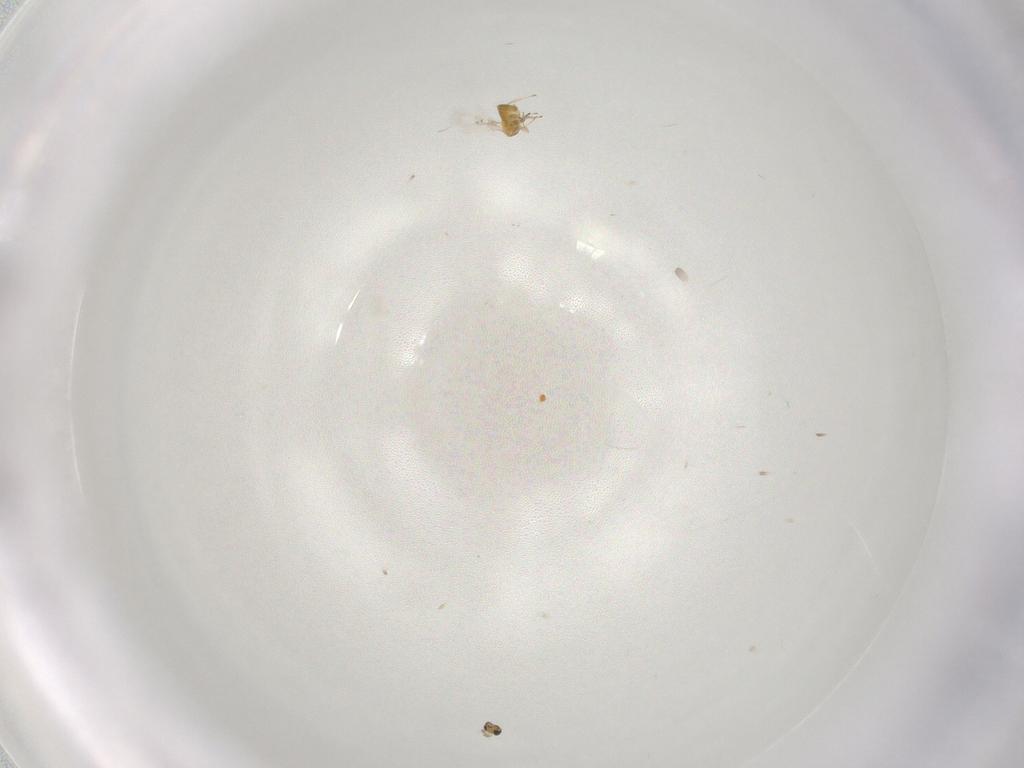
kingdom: Animalia
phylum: Arthropoda
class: Insecta
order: Hymenoptera
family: Trichogrammatidae
